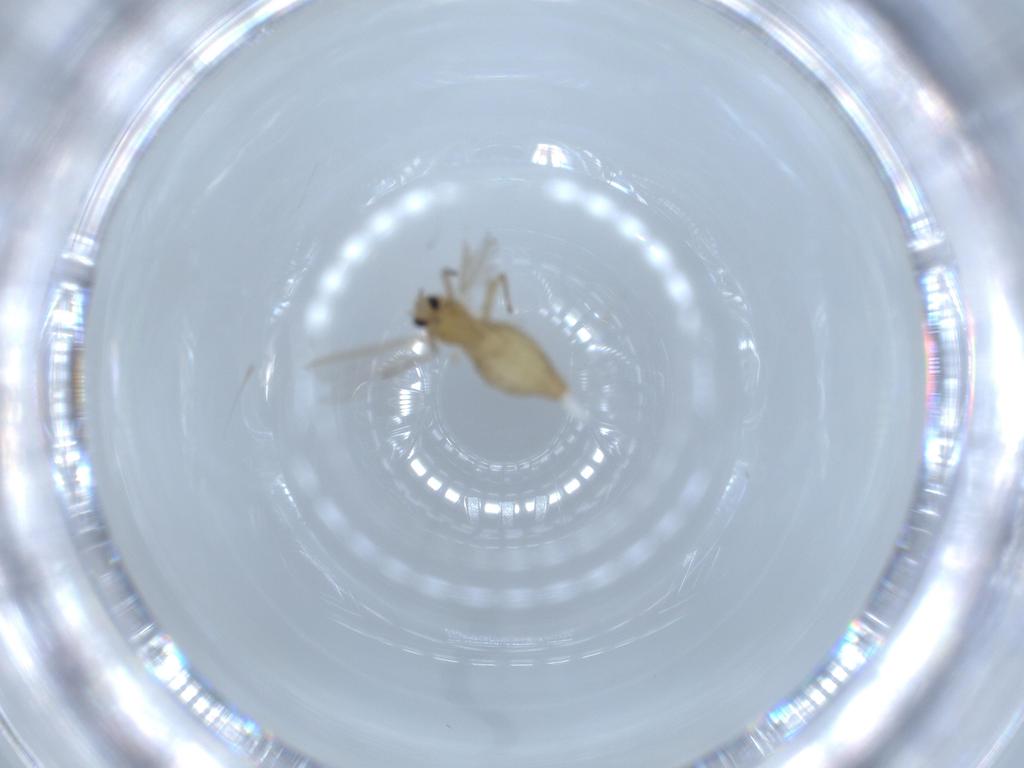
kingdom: Animalia
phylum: Arthropoda
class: Insecta
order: Diptera
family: Chironomidae
